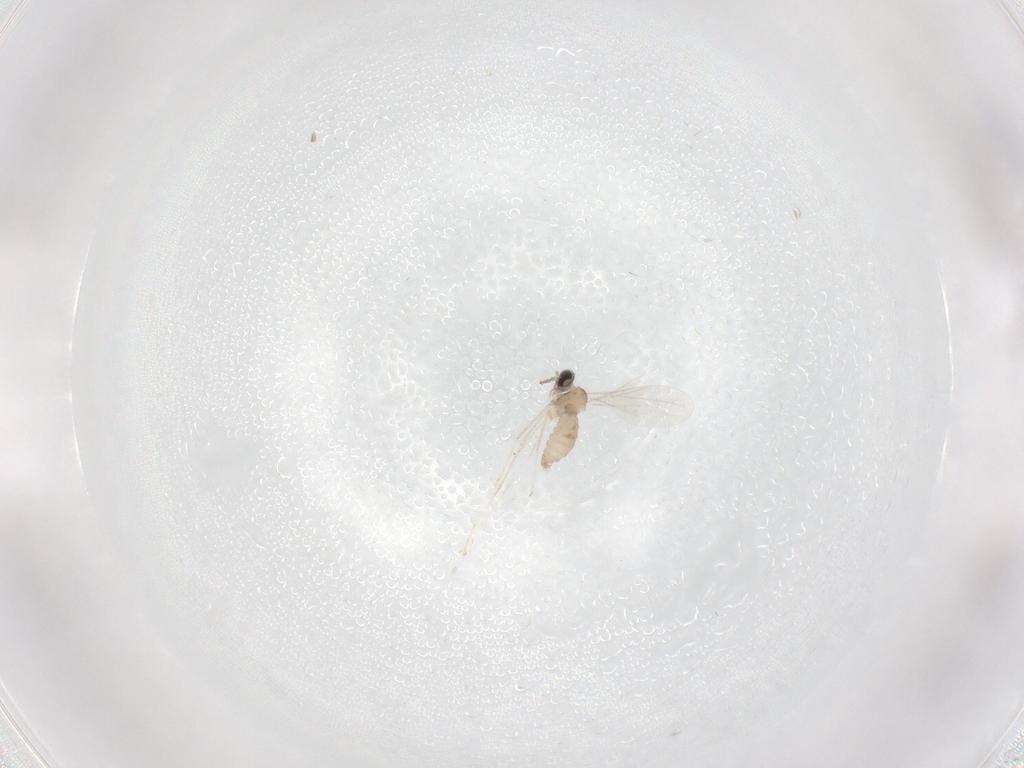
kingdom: Animalia
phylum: Arthropoda
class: Insecta
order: Diptera
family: Cecidomyiidae
